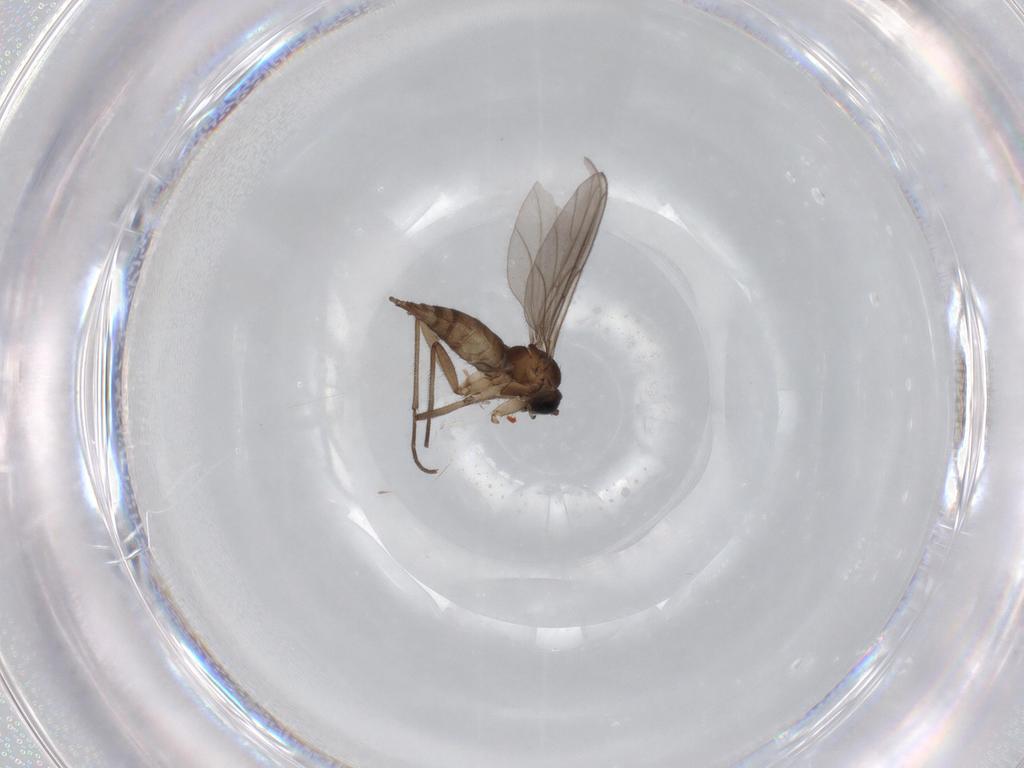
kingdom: Animalia
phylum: Arthropoda
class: Insecta
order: Diptera
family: Sciaridae
